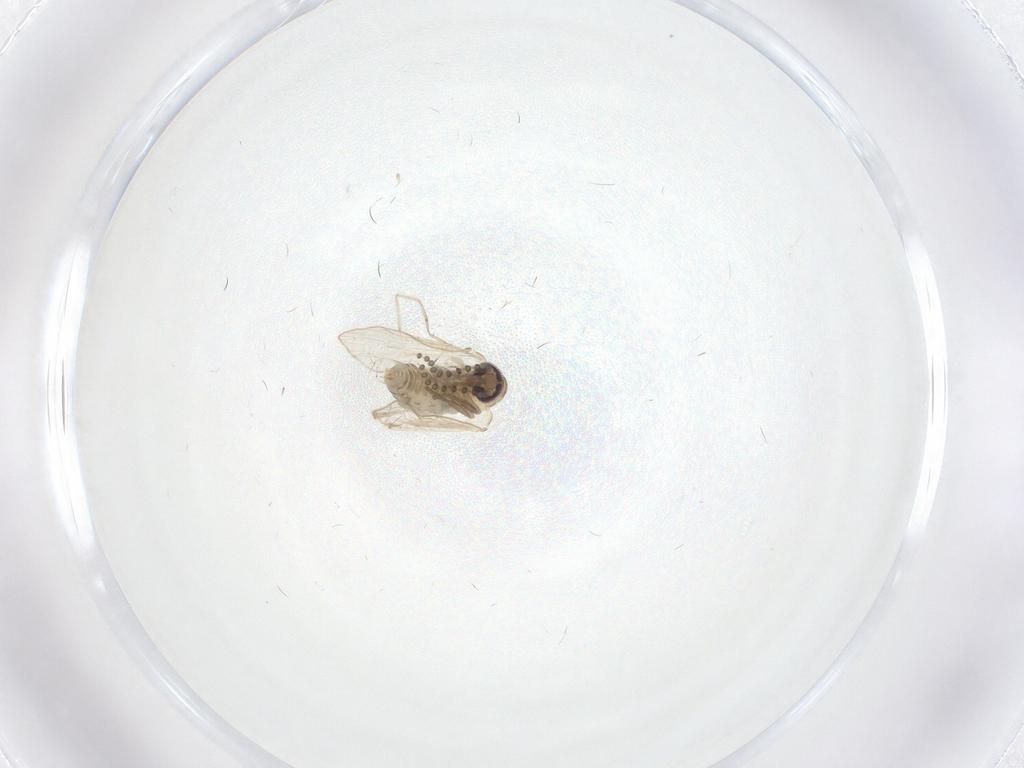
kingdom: Animalia
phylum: Arthropoda
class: Insecta
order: Diptera
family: Psychodidae
